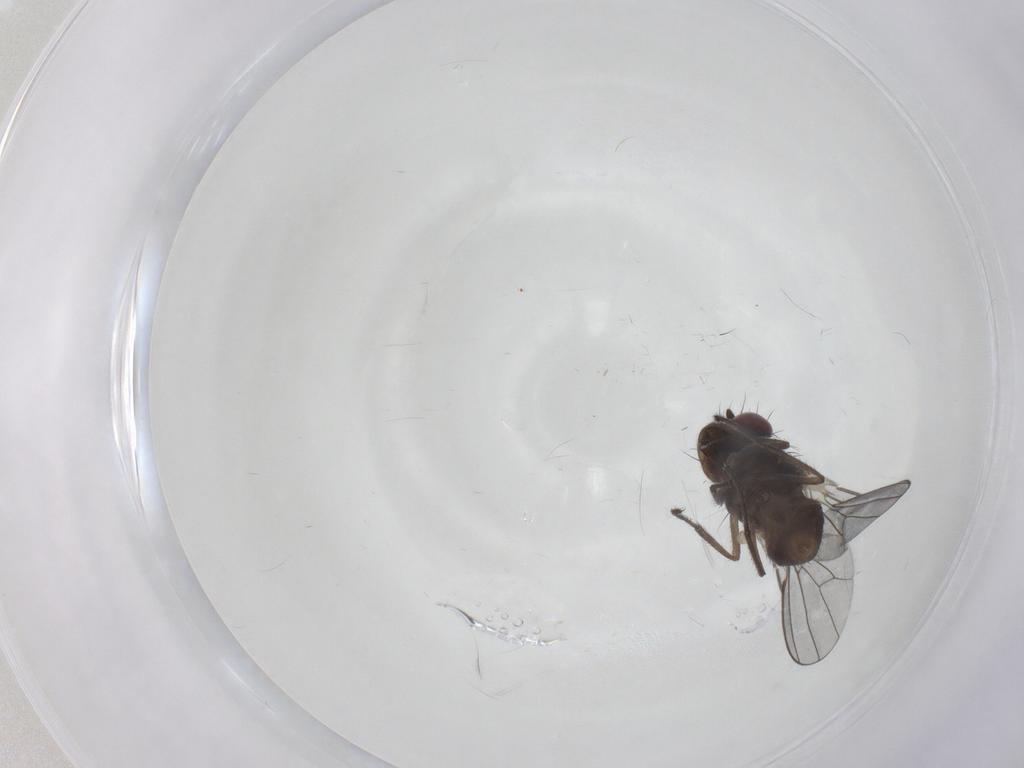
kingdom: Animalia
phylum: Arthropoda
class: Insecta
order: Diptera
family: Ephydridae
